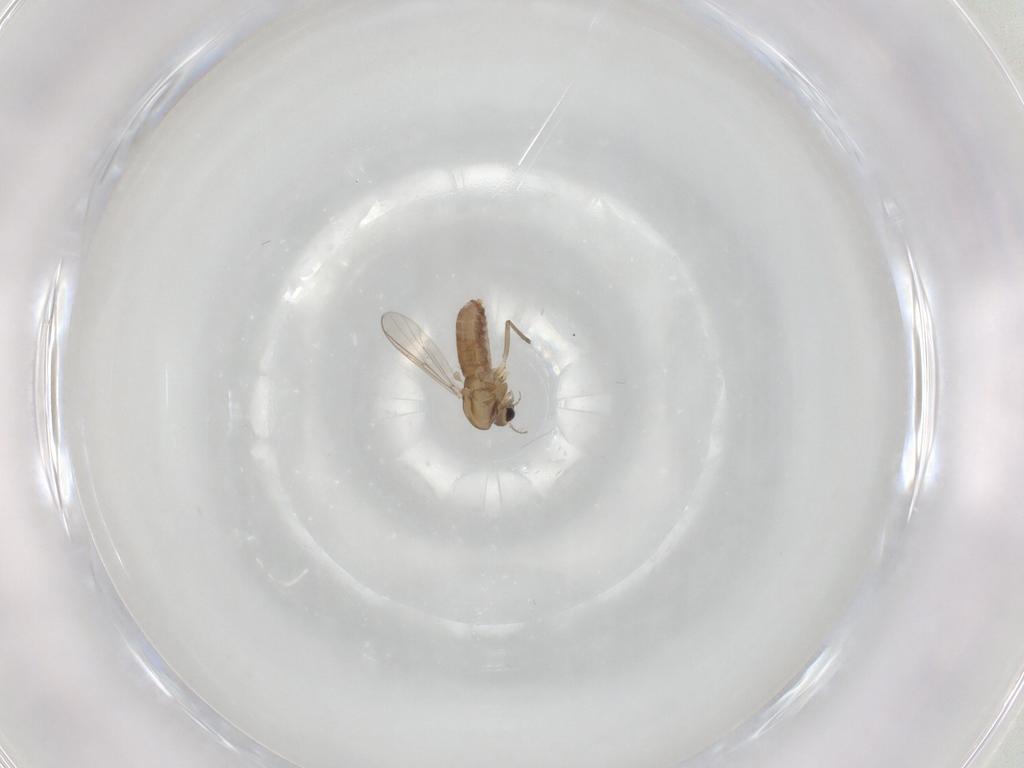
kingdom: Animalia
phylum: Arthropoda
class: Insecta
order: Diptera
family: Chironomidae
